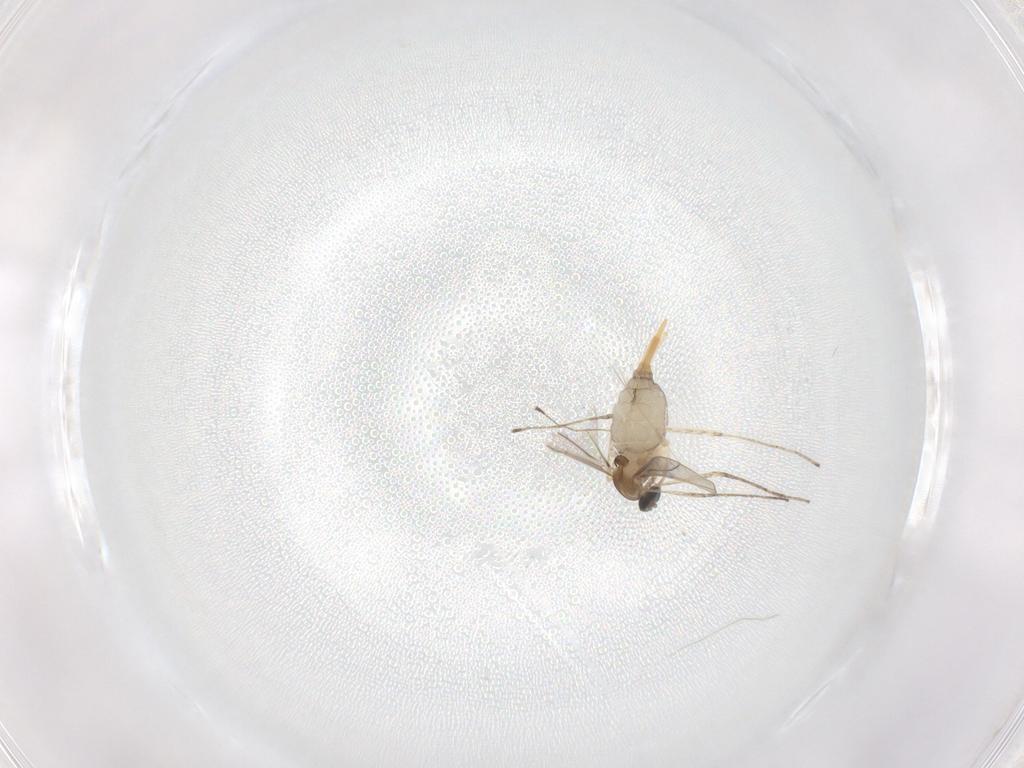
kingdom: Animalia
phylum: Arthropoda
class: Insecta
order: Diptera
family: Cecidomyiidae
